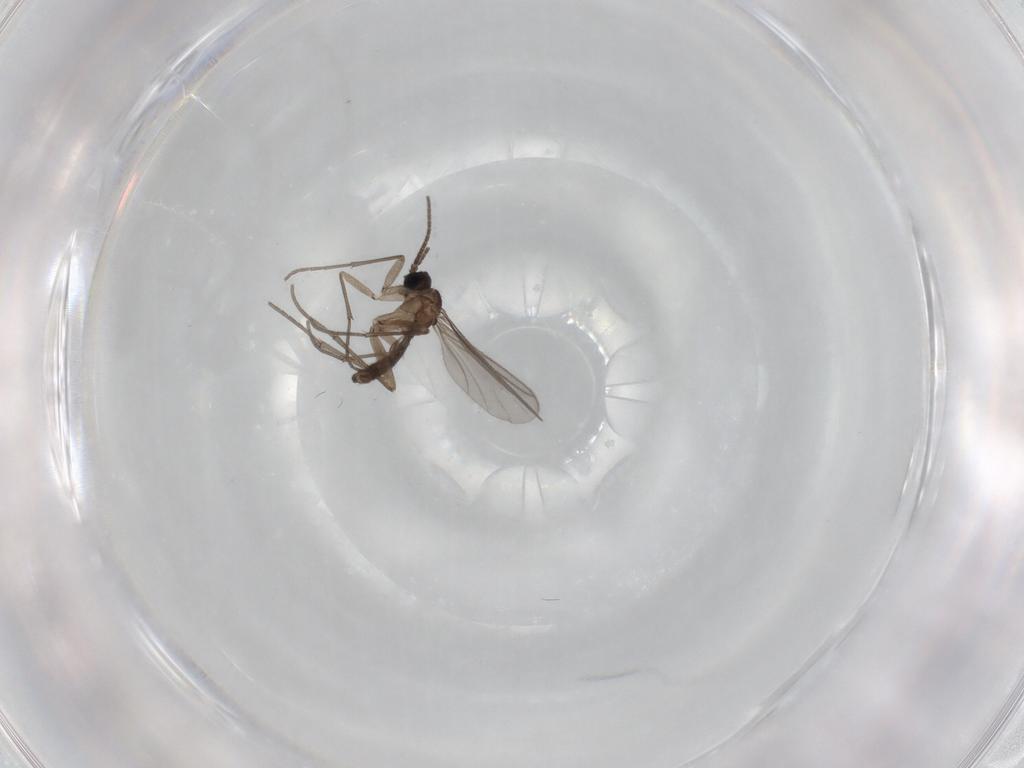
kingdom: Animalia
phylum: Arthropoda
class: Insecta
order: Diptera
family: Sciaridae
